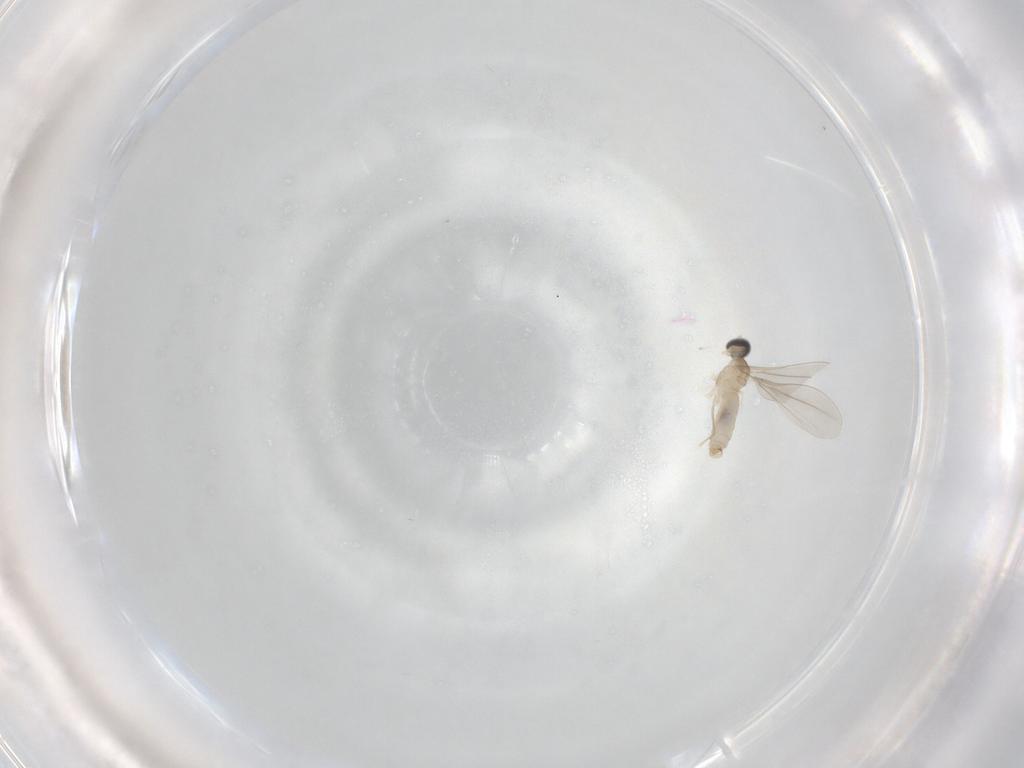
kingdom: Animalia
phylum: Arthropoda
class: Insecta
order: Diptera
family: Cecidomyiidae
